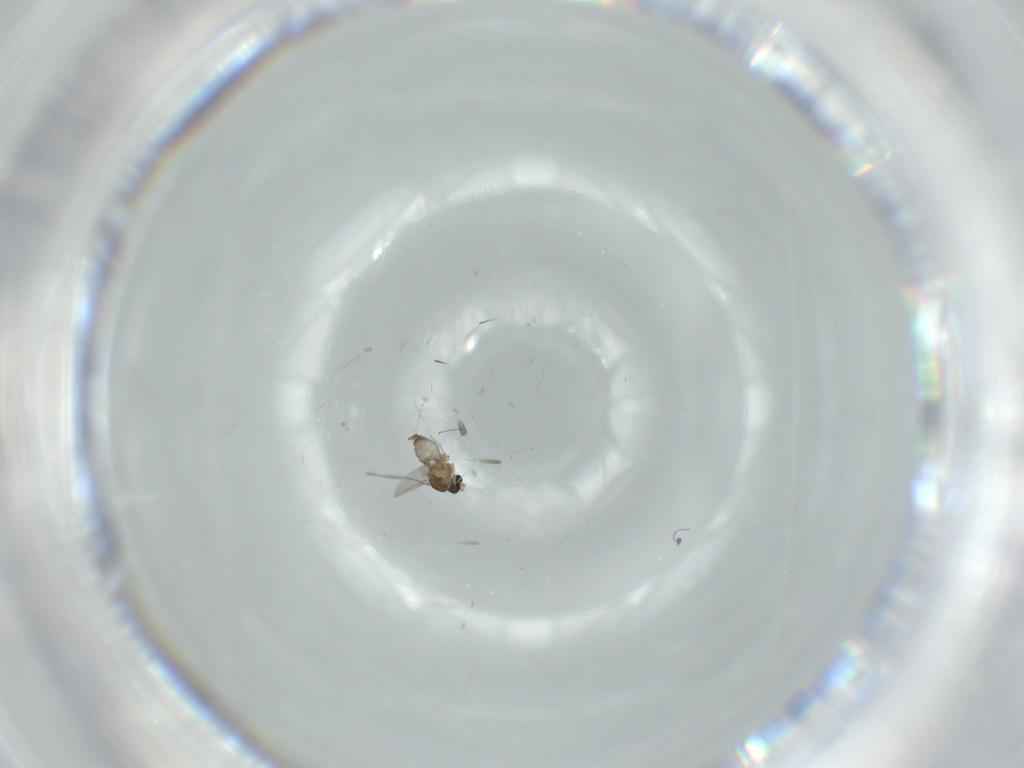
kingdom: Animalia
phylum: Arthropoda
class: Insecta
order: Diptera
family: Cecidomyiidae
